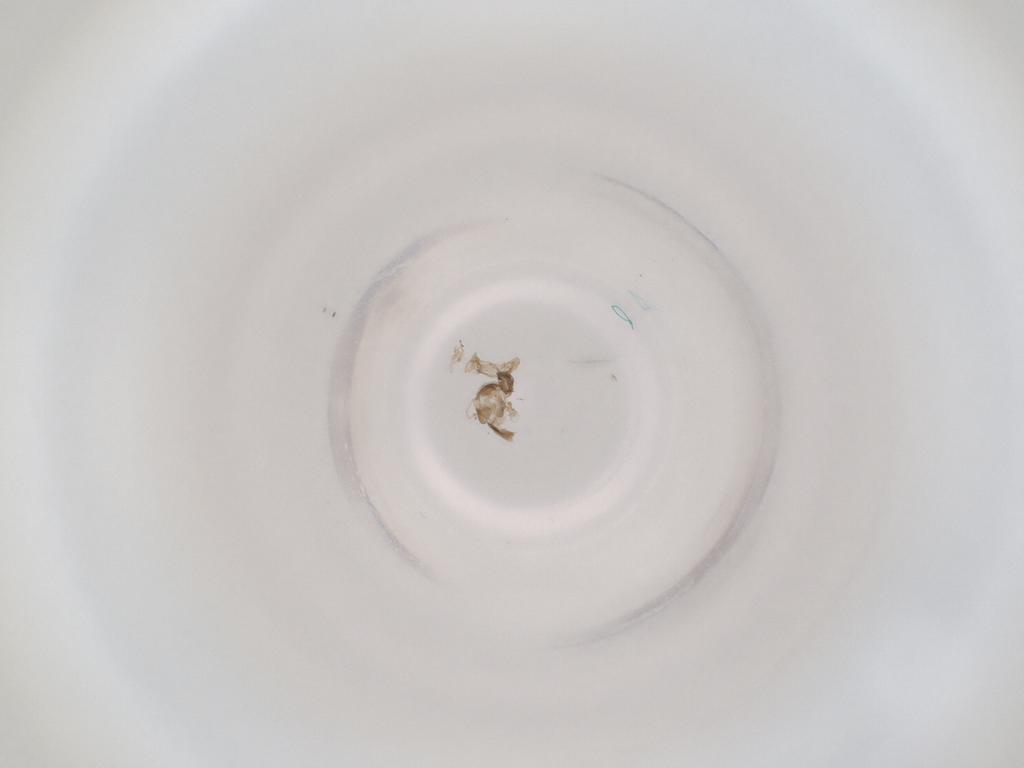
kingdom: Animalia
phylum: Arthropoda
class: Insecta
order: Diptera
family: Cecidomyiidae
